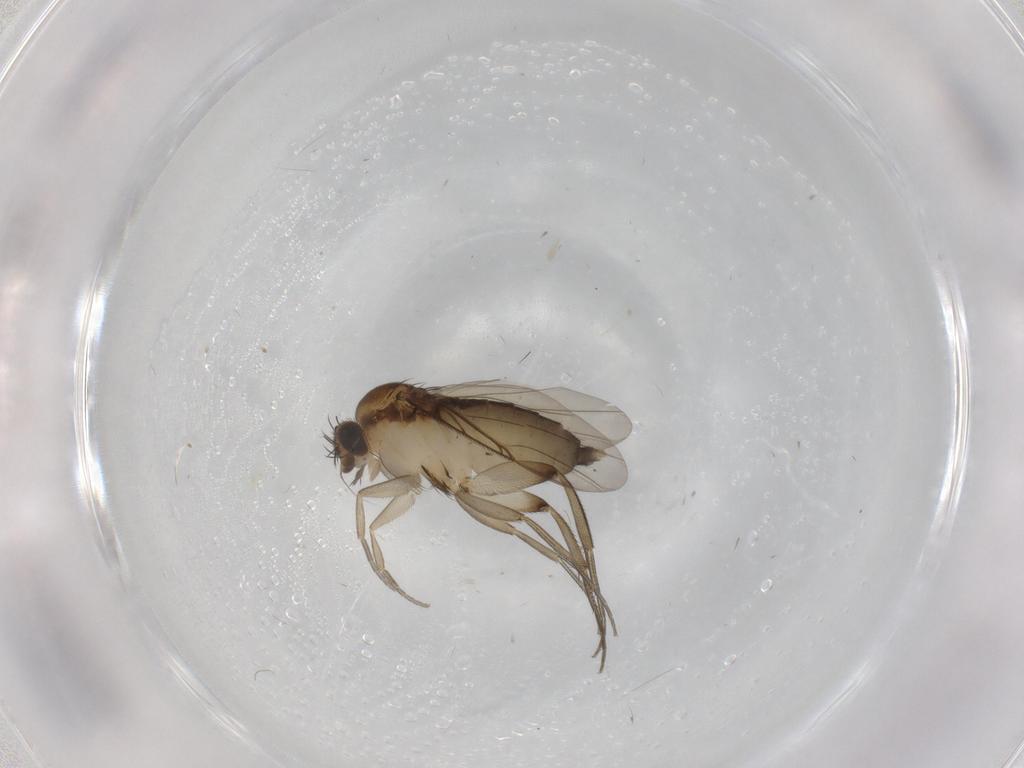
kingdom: Animalia
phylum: Arthropoda
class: Insecta
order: Diptera
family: Phoridae
